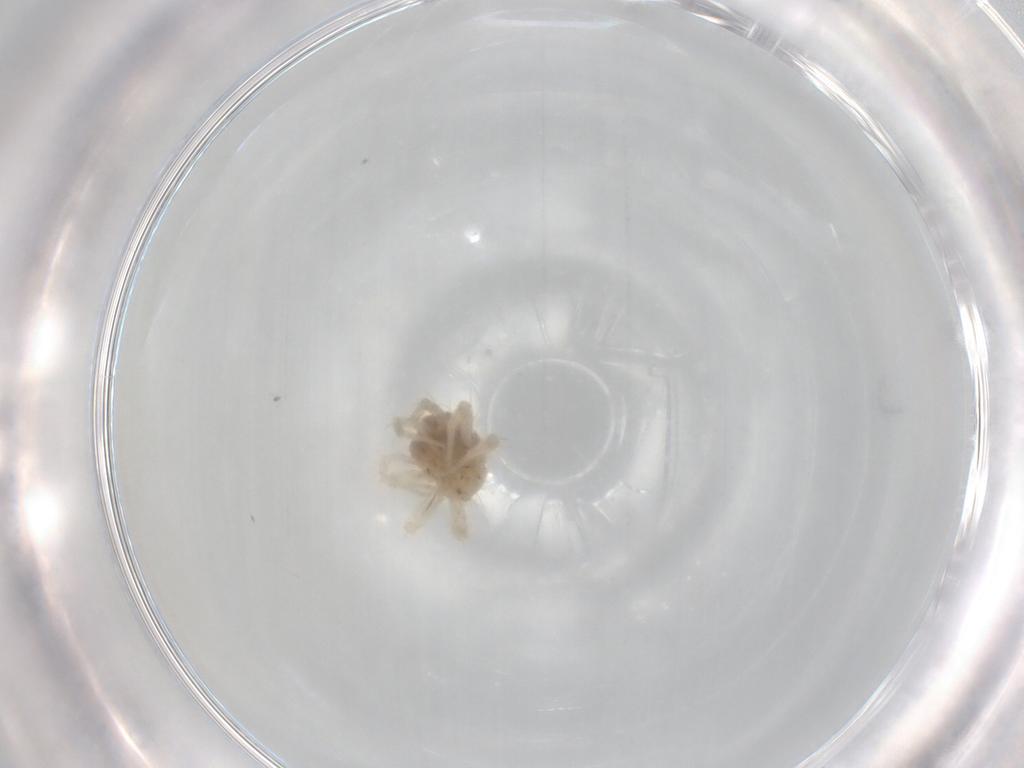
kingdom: Animalia
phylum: Arthropoda
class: Arachnida
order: Trombidiformes
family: Anystidae
